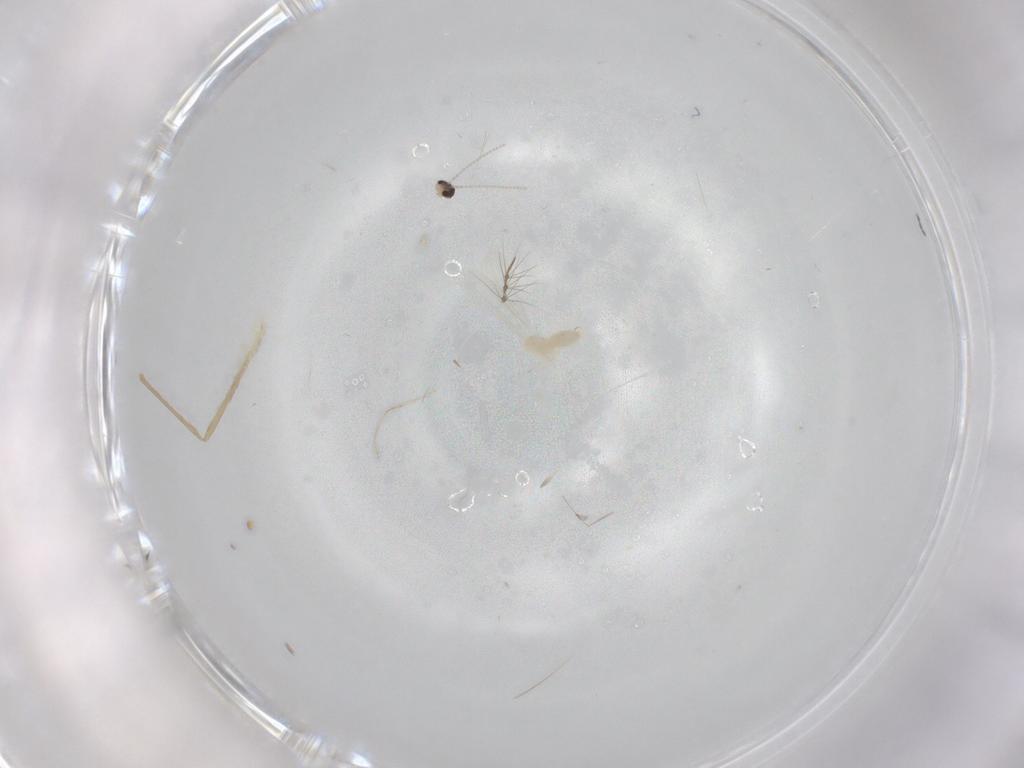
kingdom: Animalia
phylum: Arthropoda
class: Insecta
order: Diptera
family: Cecidomyiidae
